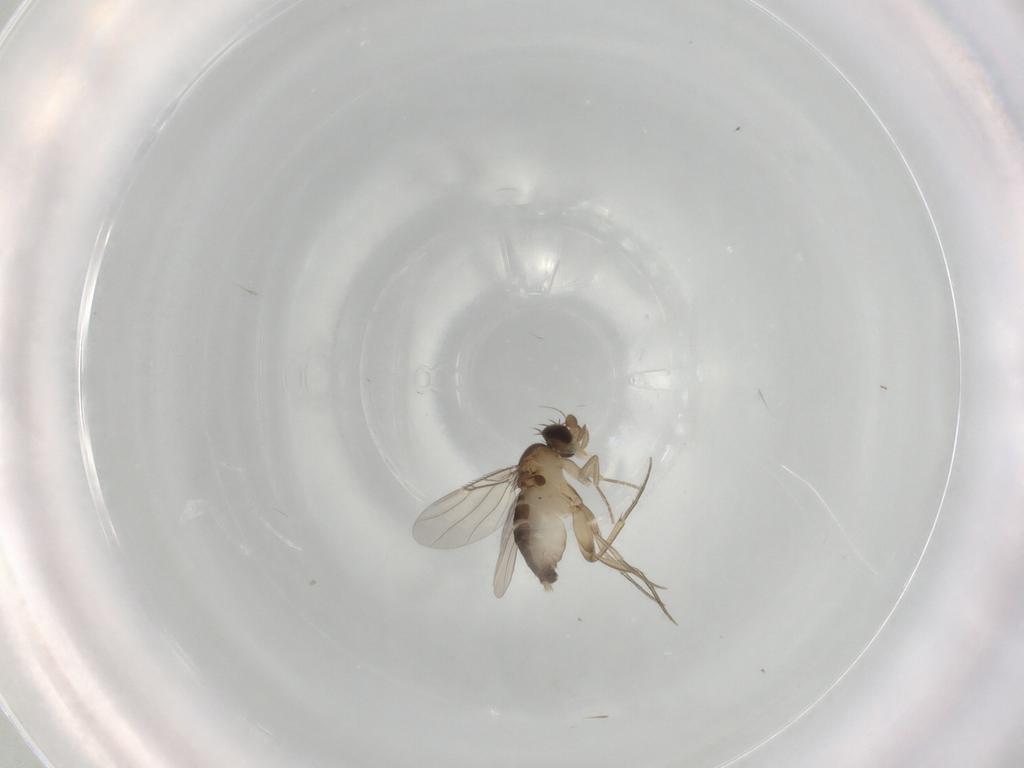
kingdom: Animalia
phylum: Arthropoda
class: Insecta
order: Diptera
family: Phoridae
